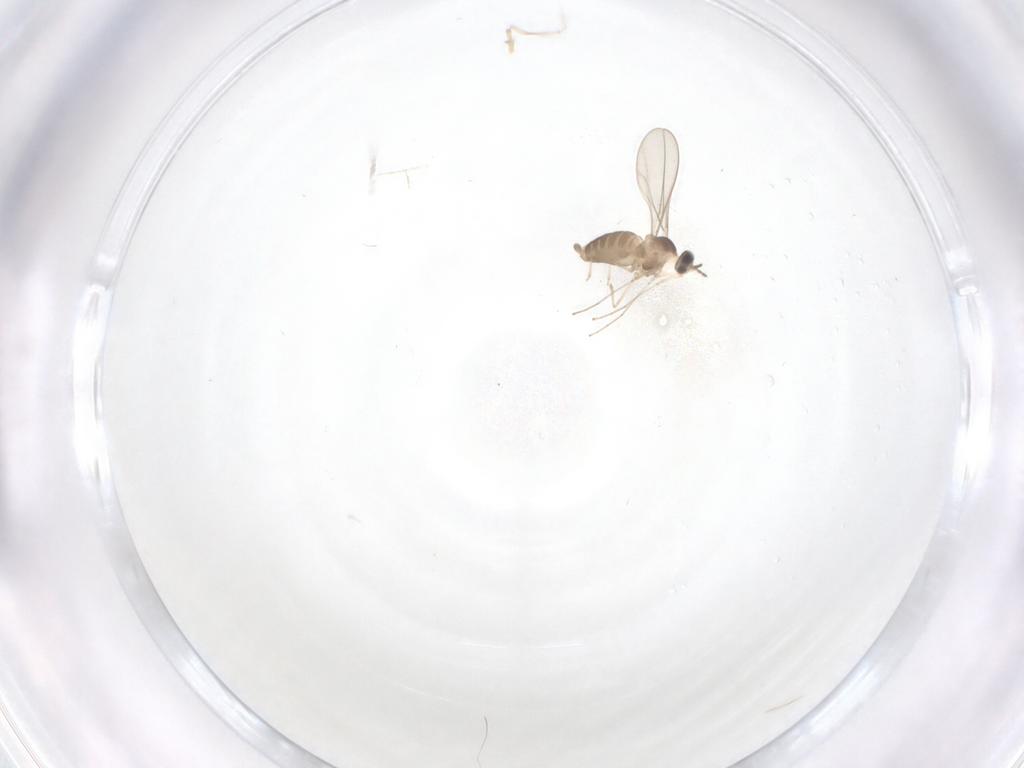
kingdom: Animalia
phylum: Arthropoda
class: Insecta
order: Diptera
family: Cecidomyiidae
